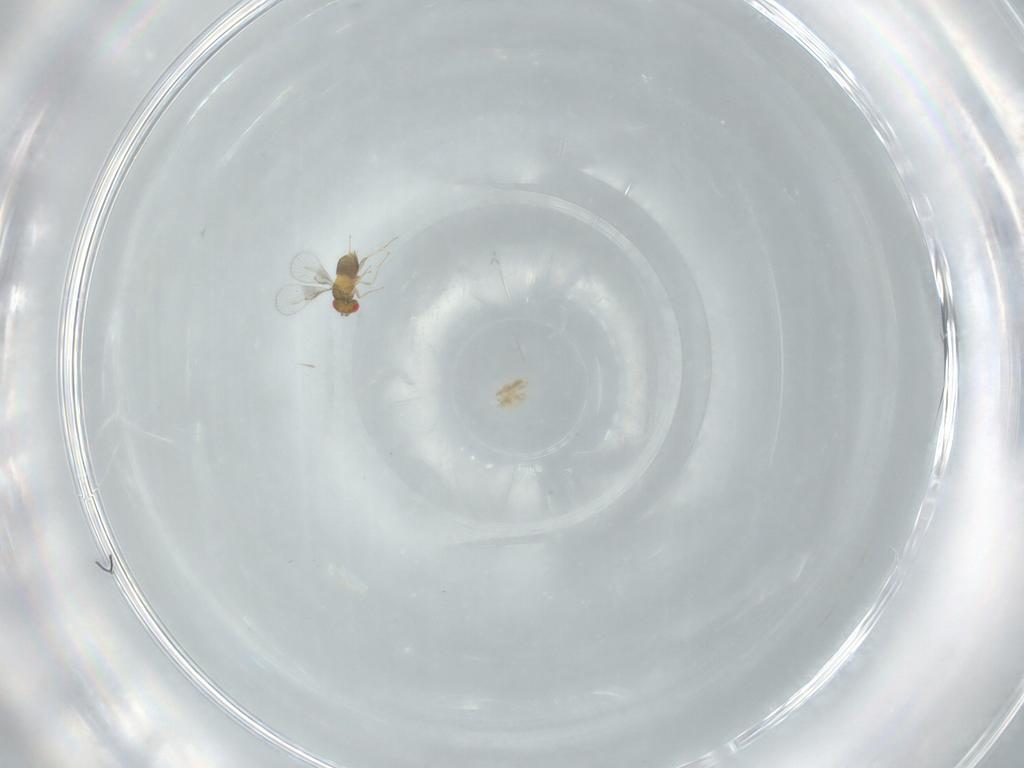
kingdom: Animalia
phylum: Arthropoda
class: Insecta
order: Hymenoptera
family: Trichogrammatidae
